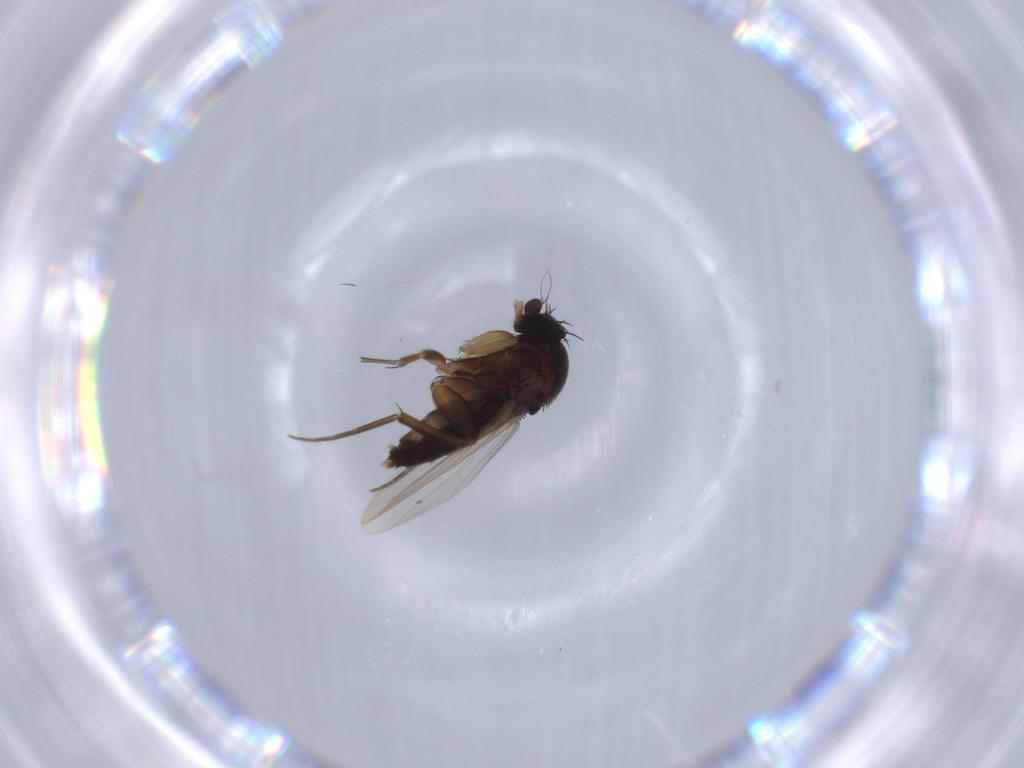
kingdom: Animalia
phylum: Arthropoda
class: Insecta
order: Diptera
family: Phoridae
